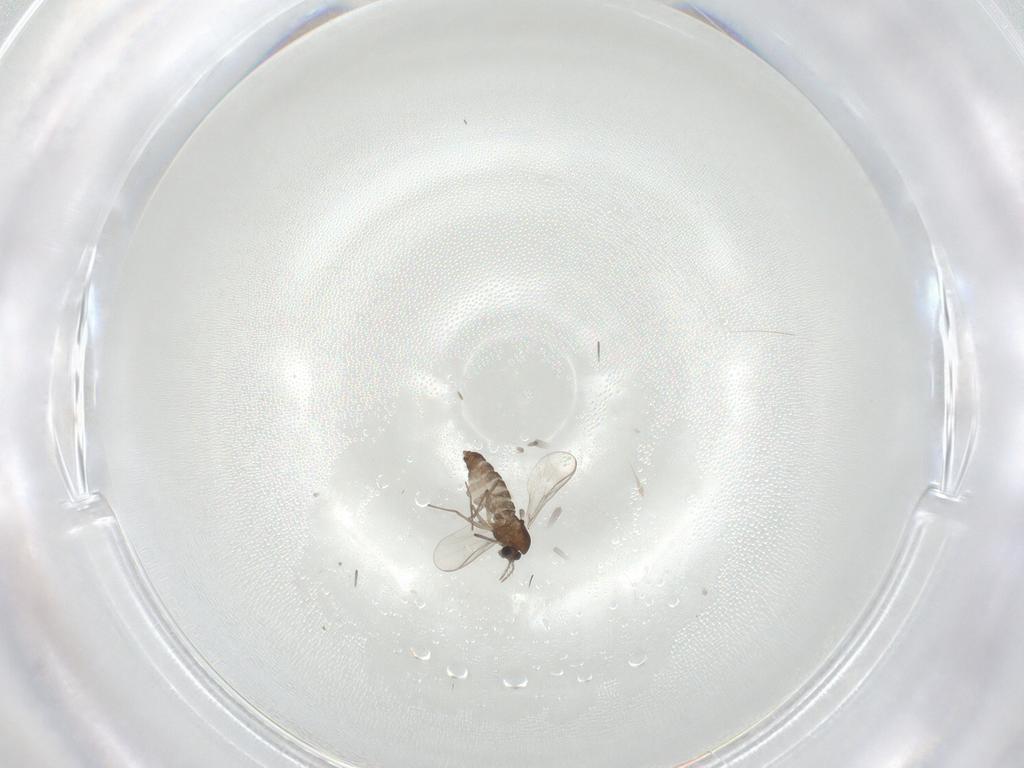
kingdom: Animalia
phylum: Arthropoda
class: Insecta
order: Diptera
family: Chironomidae
